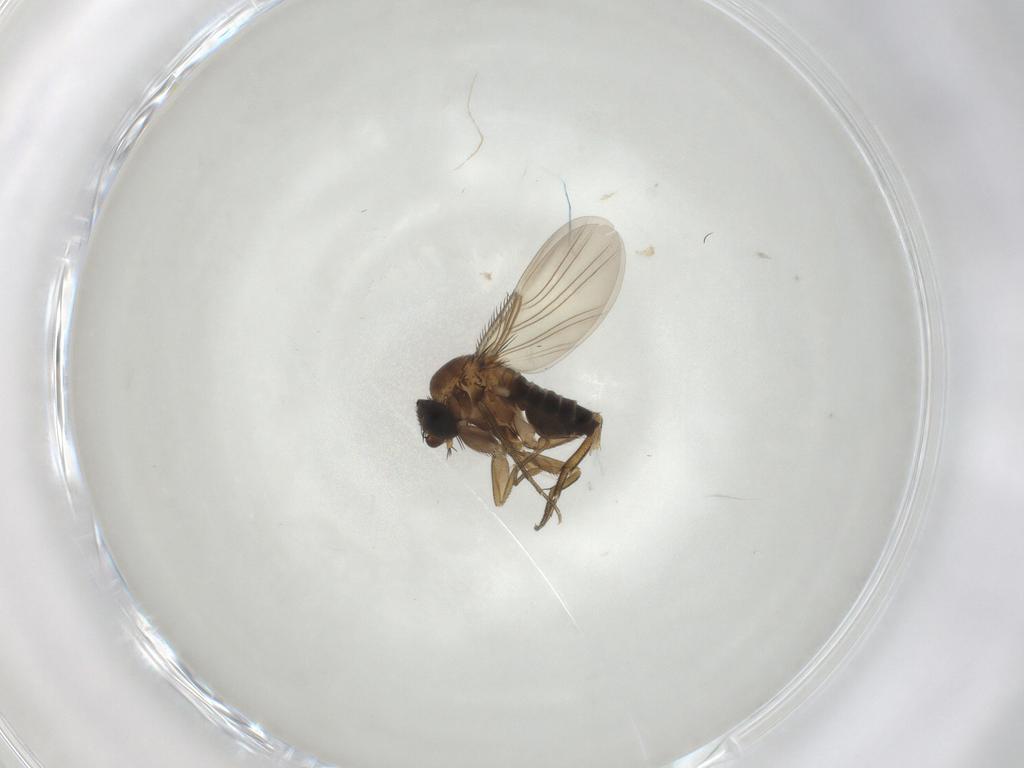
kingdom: Animalia
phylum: Arthropoda
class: Insecta
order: Diptera
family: Phoridae
